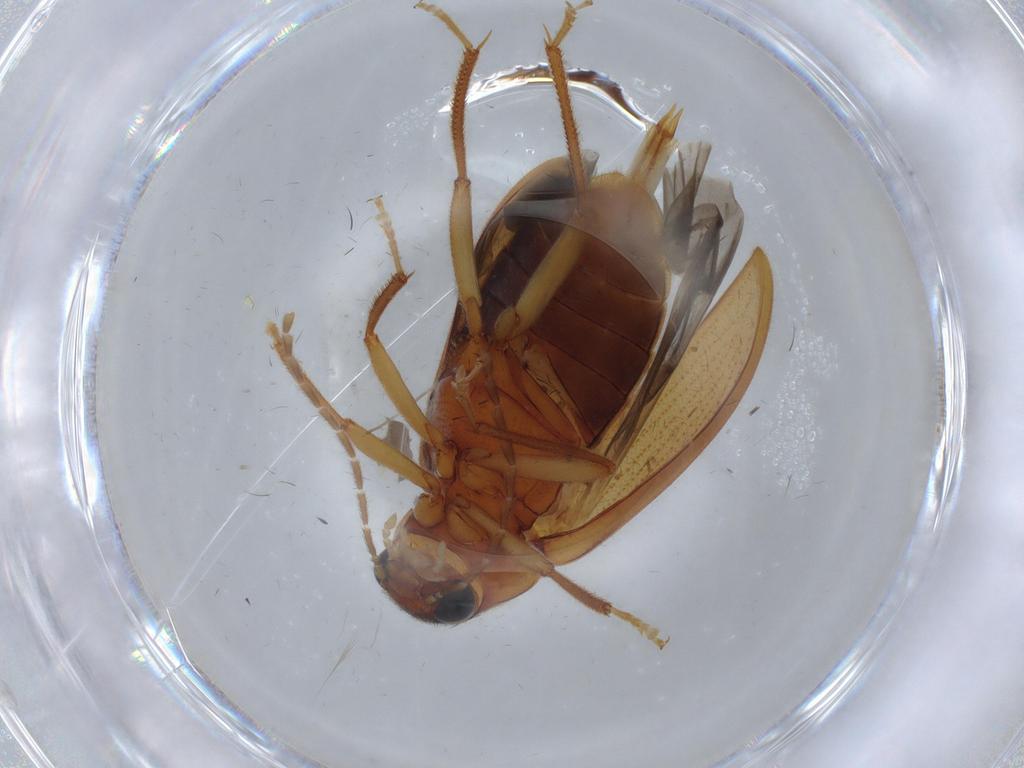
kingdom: Animalia
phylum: Arthropoda
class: Insecta
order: Coleoptera
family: Ptilodactylidae
